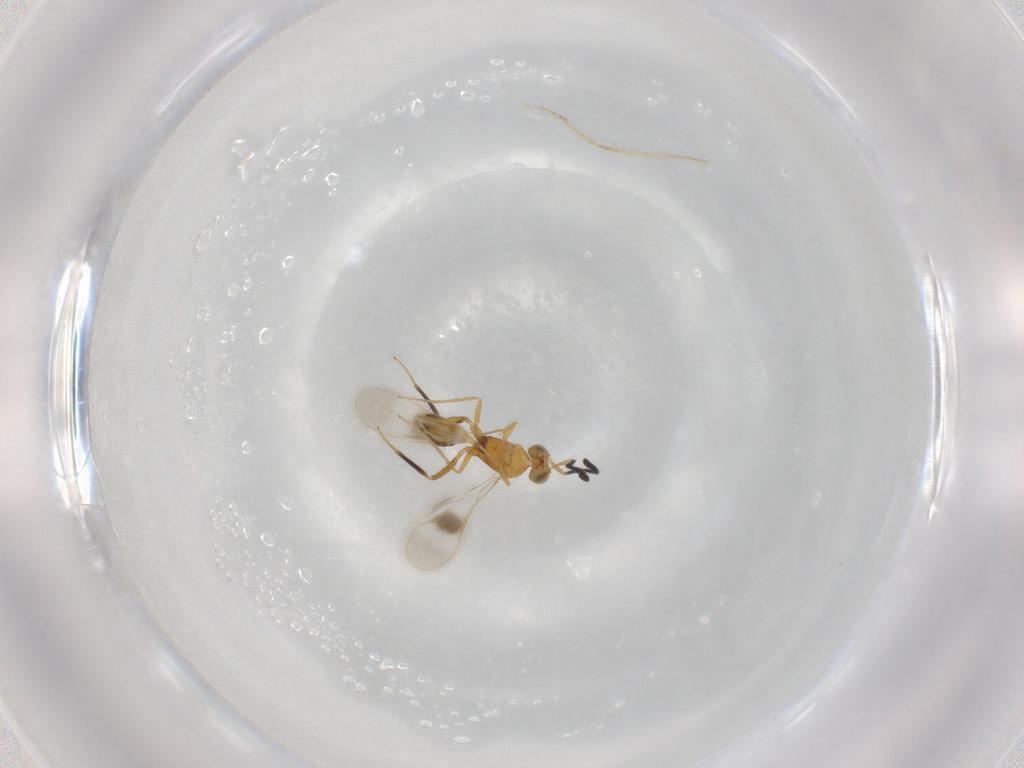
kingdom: Animalia
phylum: Arthropoda
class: Insecta
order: Hymenoptera
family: Mymaridae
